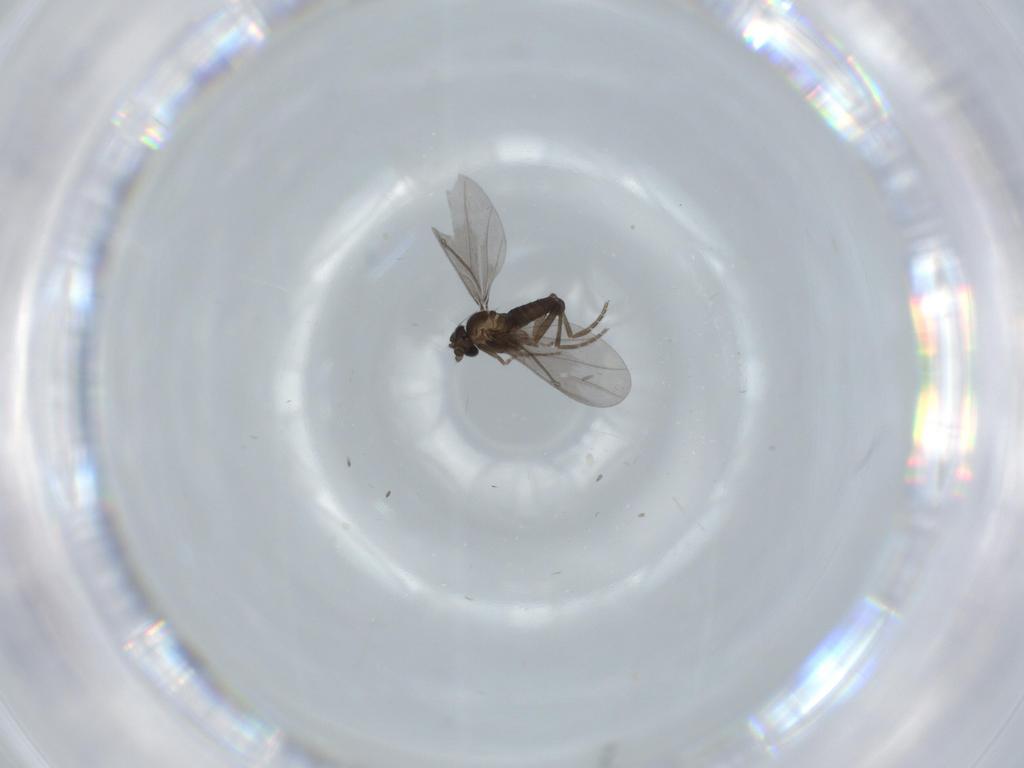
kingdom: Animalia
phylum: Arthropoda
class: Insecta
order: Diptera
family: Phoridae
